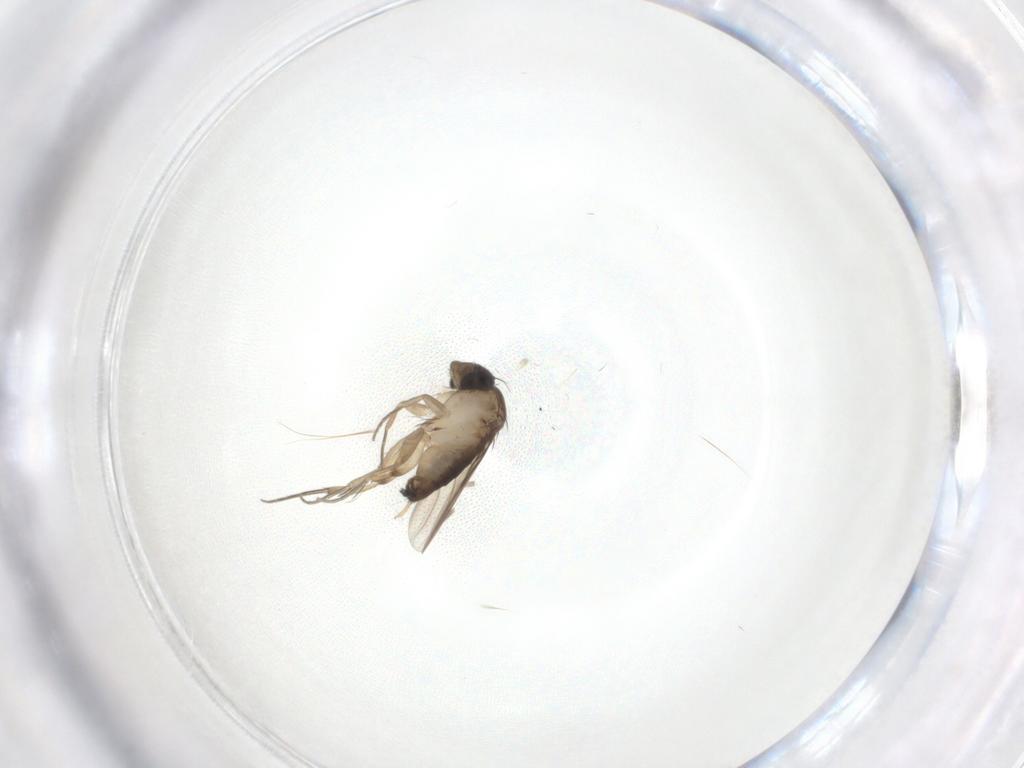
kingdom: Animalia
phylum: Arthropoda
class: Insecta
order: Diptera
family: Phoridae
